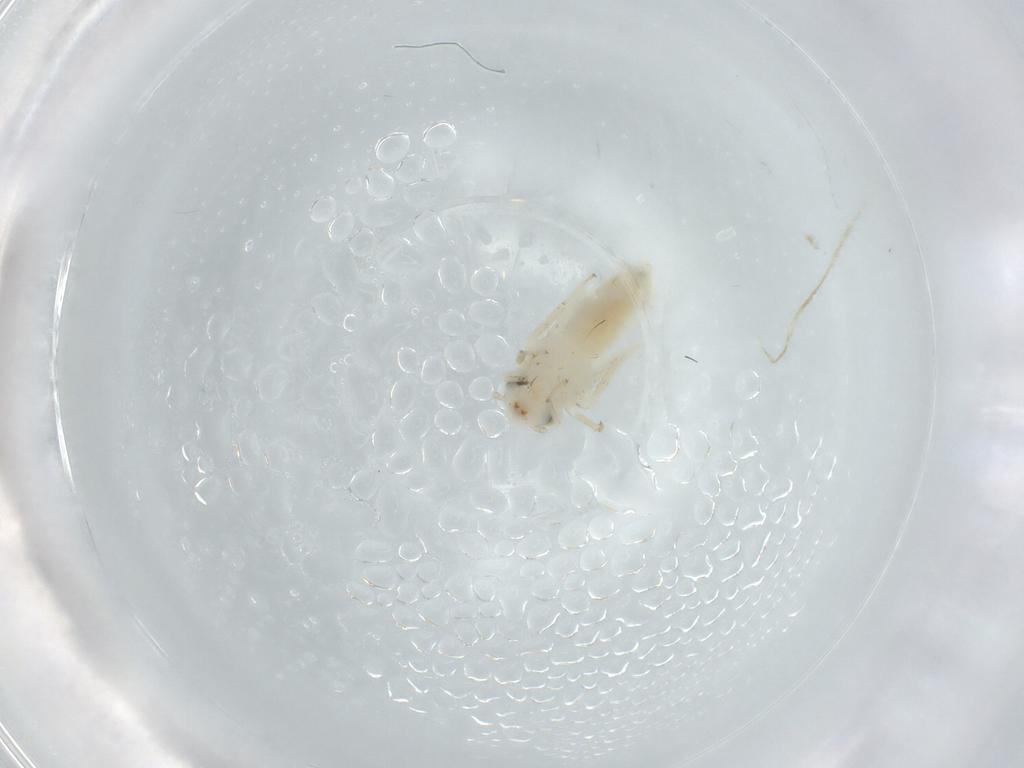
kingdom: Animalia
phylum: Arthropoda
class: Insecta
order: Psocodea
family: Lepidopsocidae
